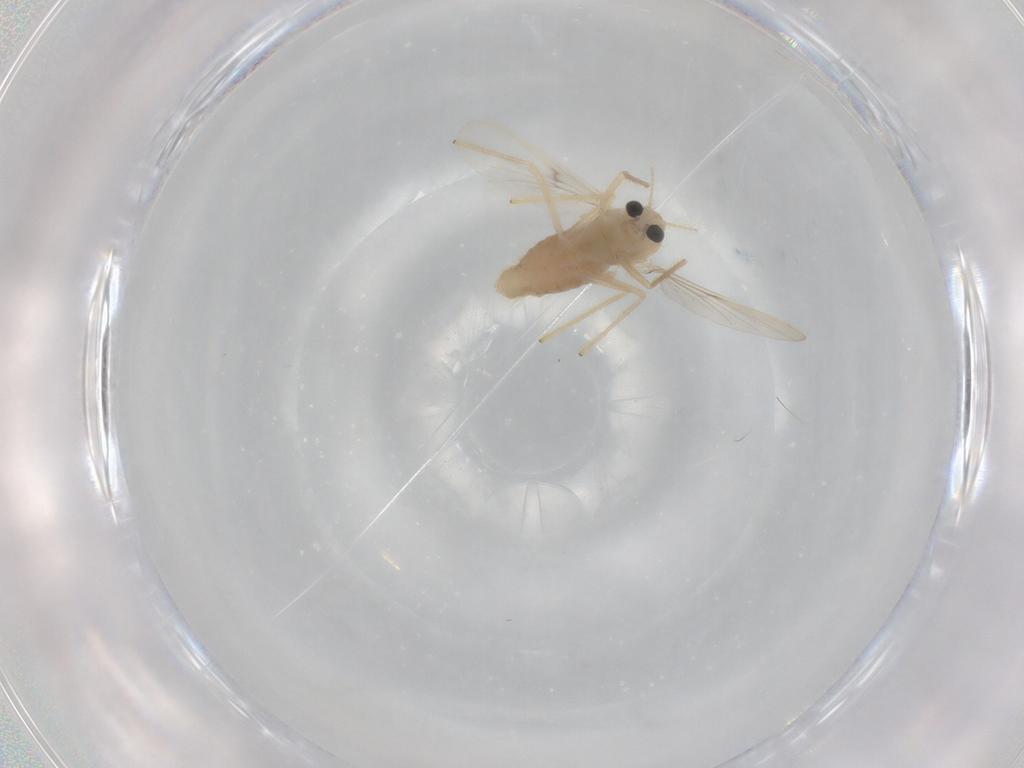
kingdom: Animalia
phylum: Arthropoda
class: Insecta
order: Diptera
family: Chironomidae
